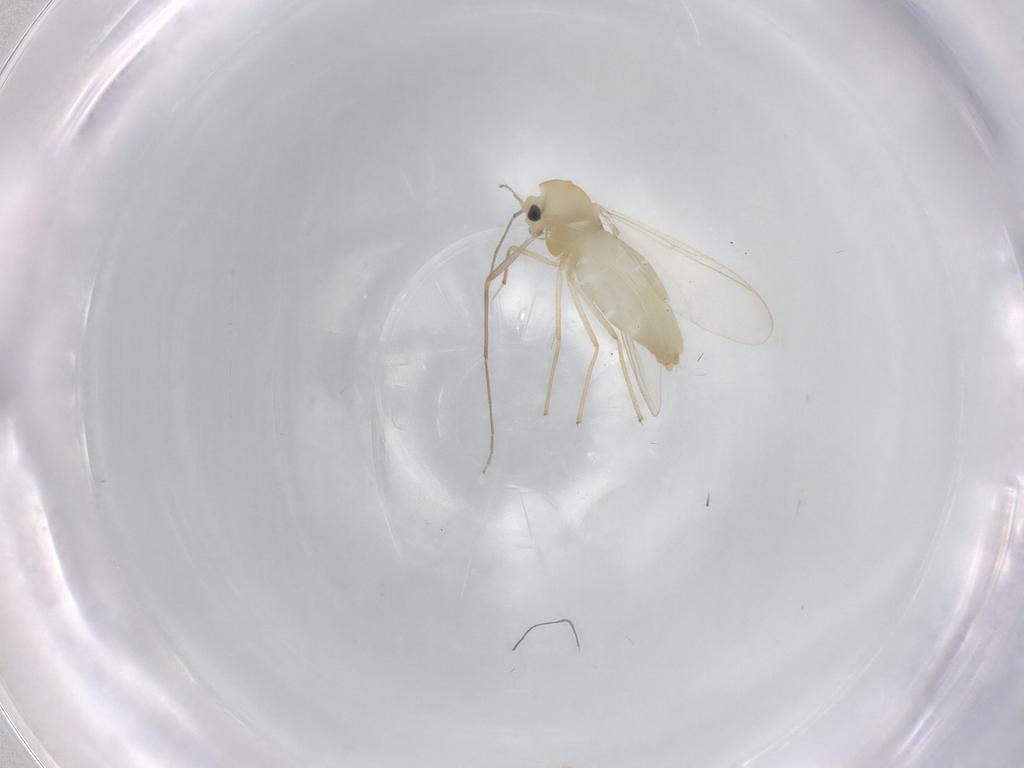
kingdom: Animalia
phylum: Arthropoda
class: Insecta
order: Diptera
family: Chironomidae
